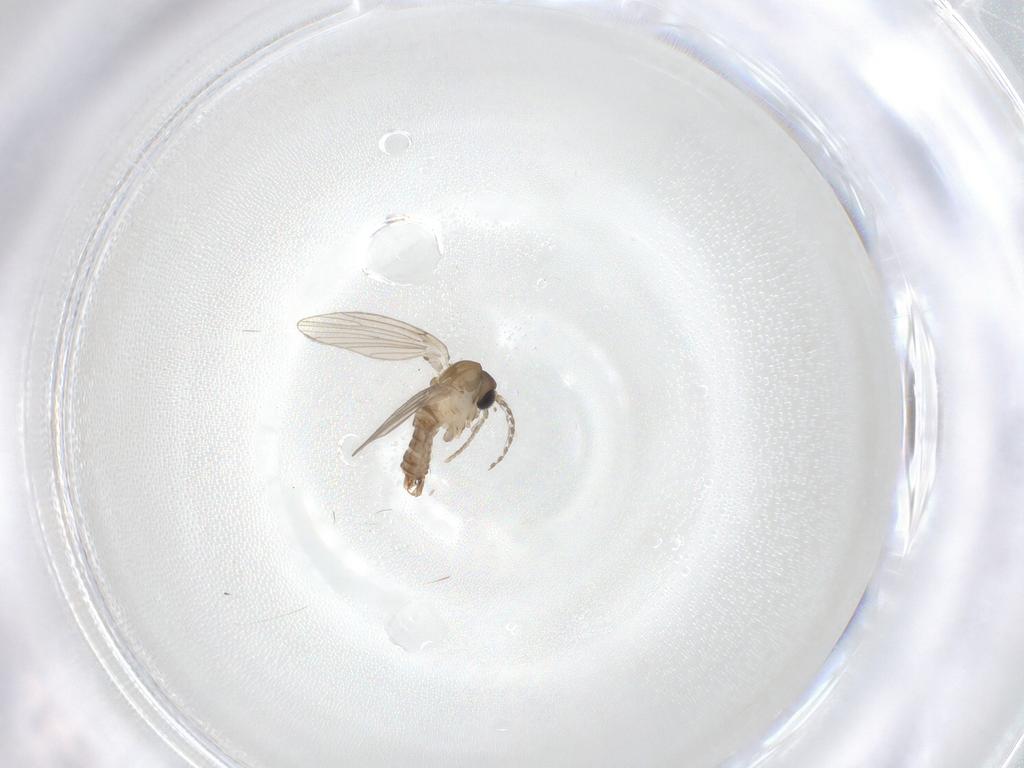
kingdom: Animalia
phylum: Arthropoda
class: Insecta
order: Diptera
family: Psychodidae
